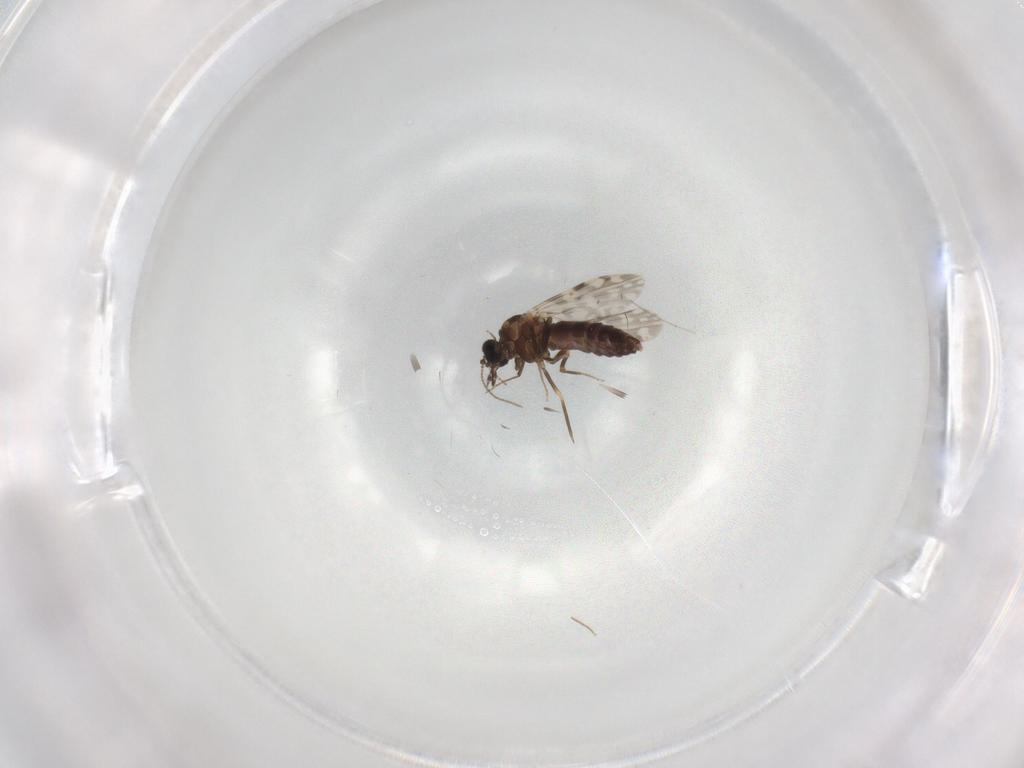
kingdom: Animalia
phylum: Arthropoda
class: Insecta
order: Diptera
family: Ceratopogonidae
